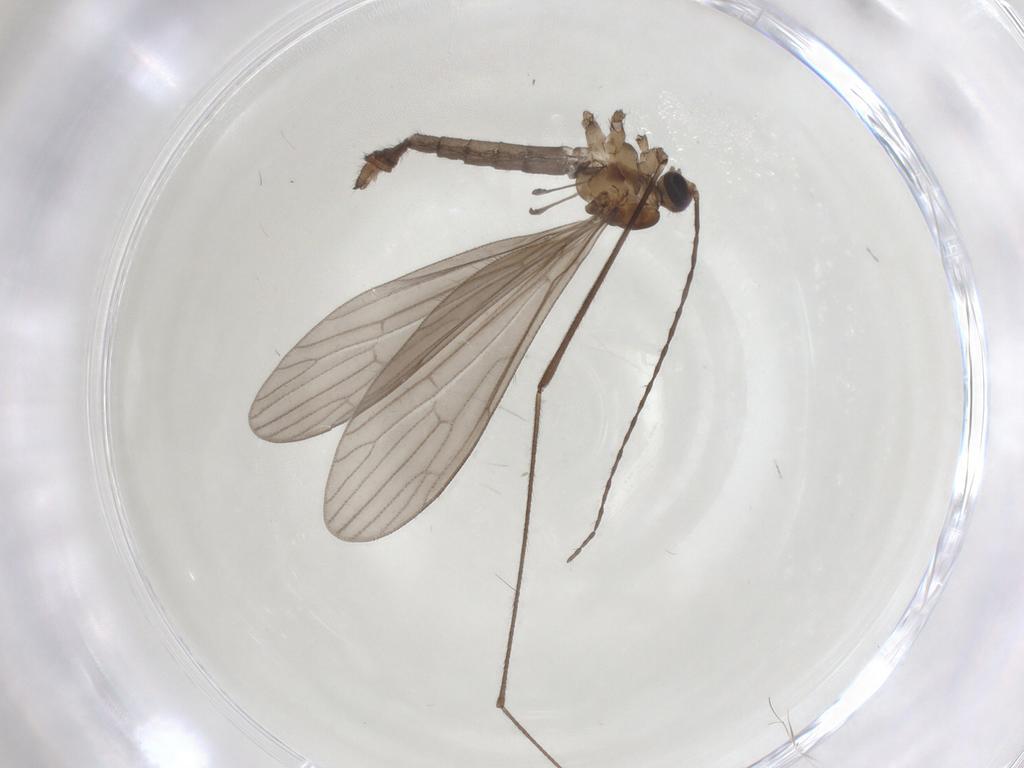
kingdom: Animalia
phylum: Arthropoda
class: Insecta
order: Diptera
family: Limoniidae
